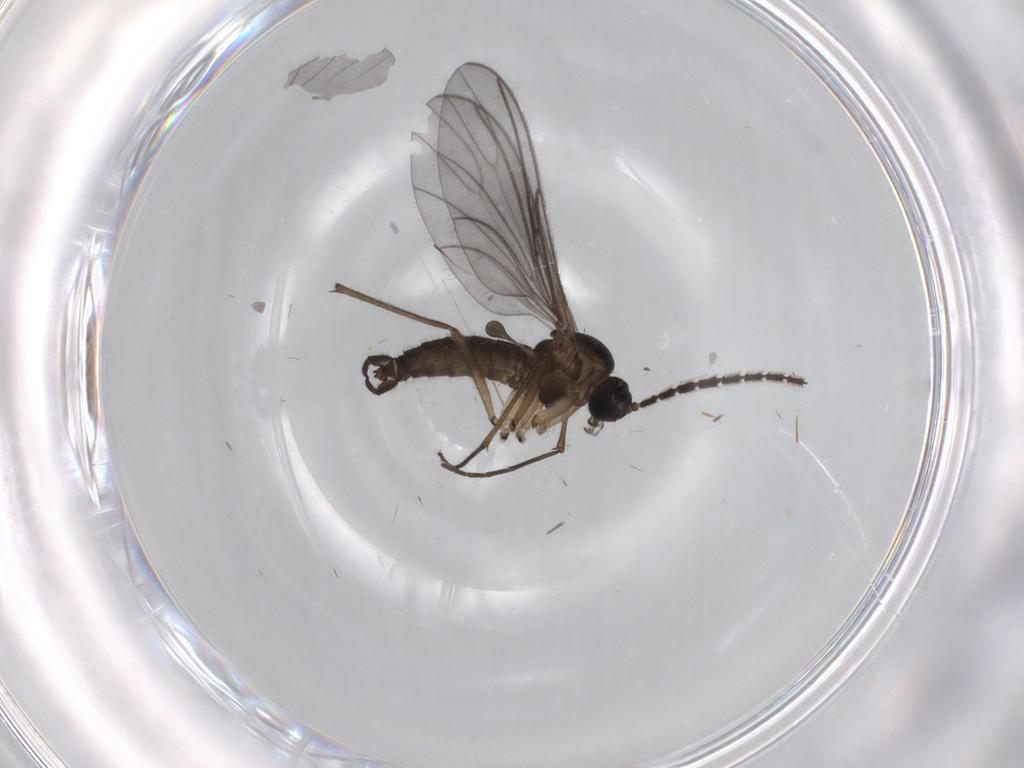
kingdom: Animalia
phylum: Arthropoda
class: Insecta
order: Diptera
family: Sciaridae
